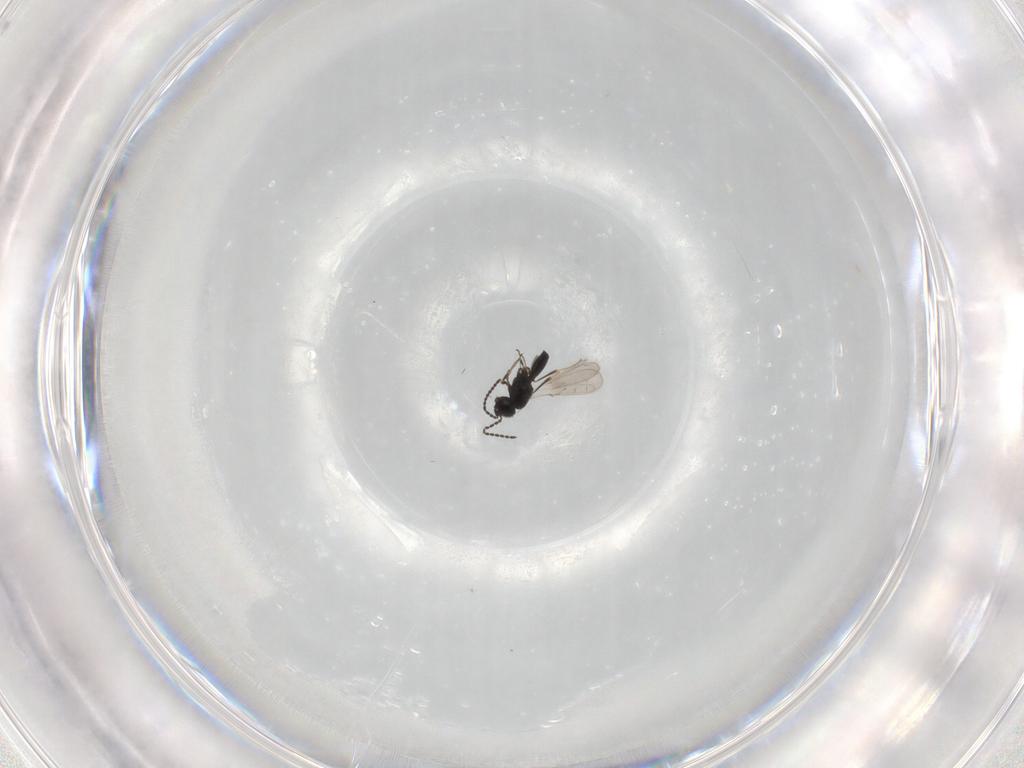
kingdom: Animalia
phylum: Arthropoda
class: Insecta
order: Hymenoptera
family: Scelionidae
